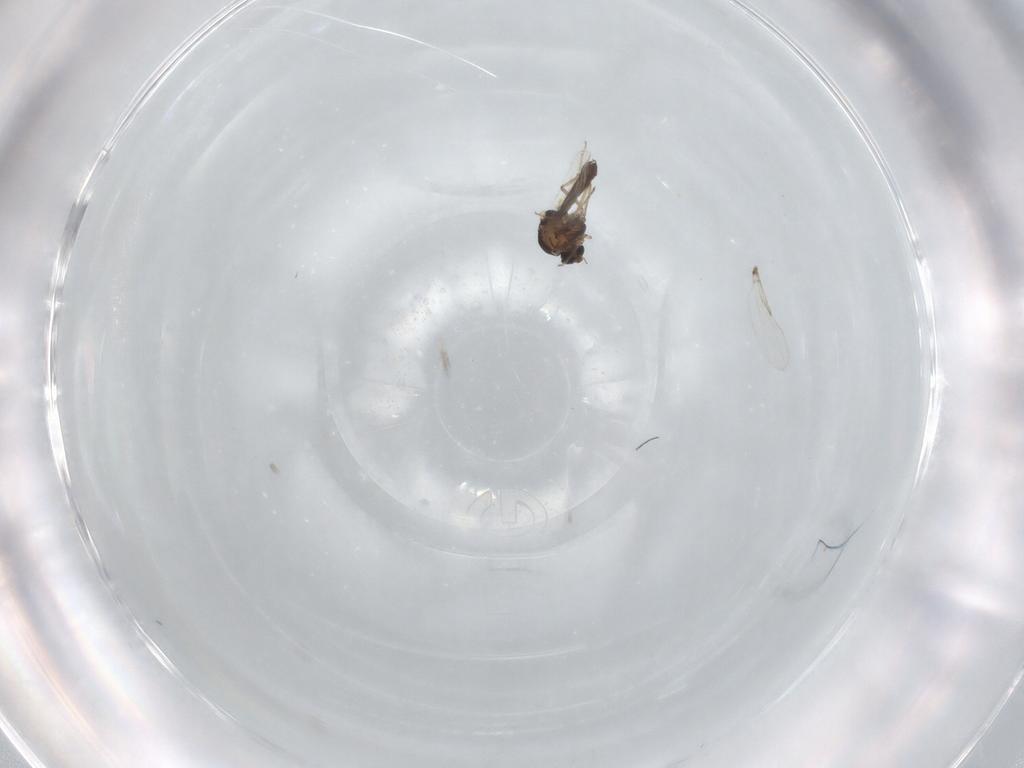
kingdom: Animalia
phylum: Arthropoda
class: Insecta
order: Diptera
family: Ceratopogonidae
